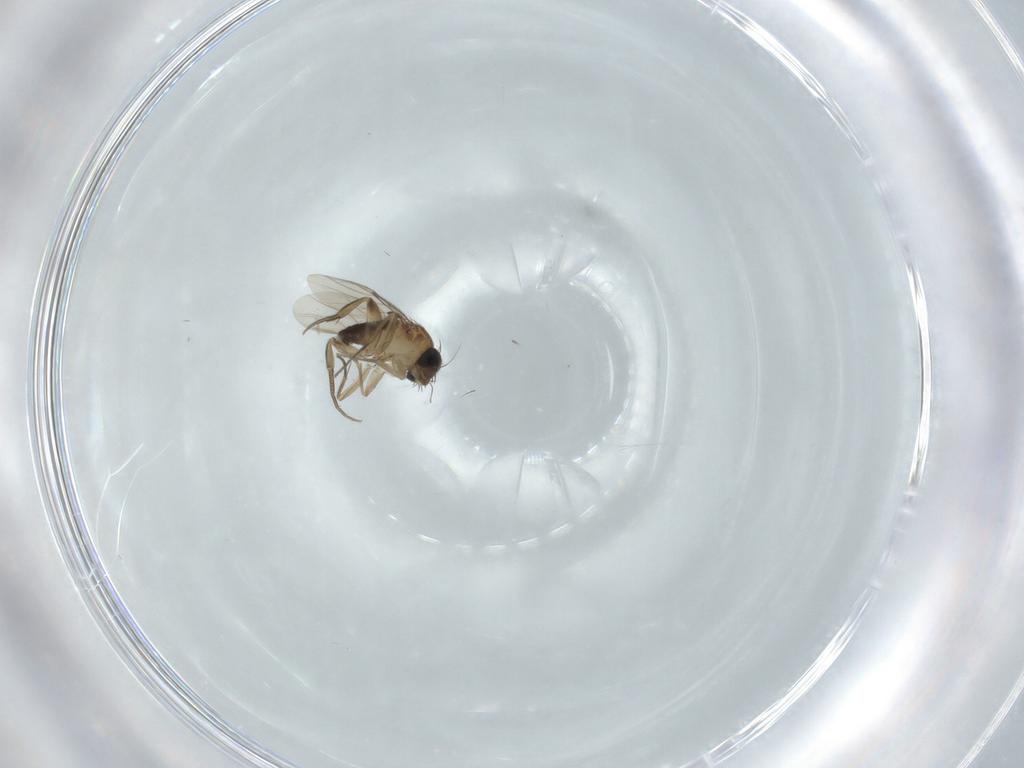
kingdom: Animalia
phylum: Arthropoda
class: Insecta
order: Diptera
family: Phoridae
